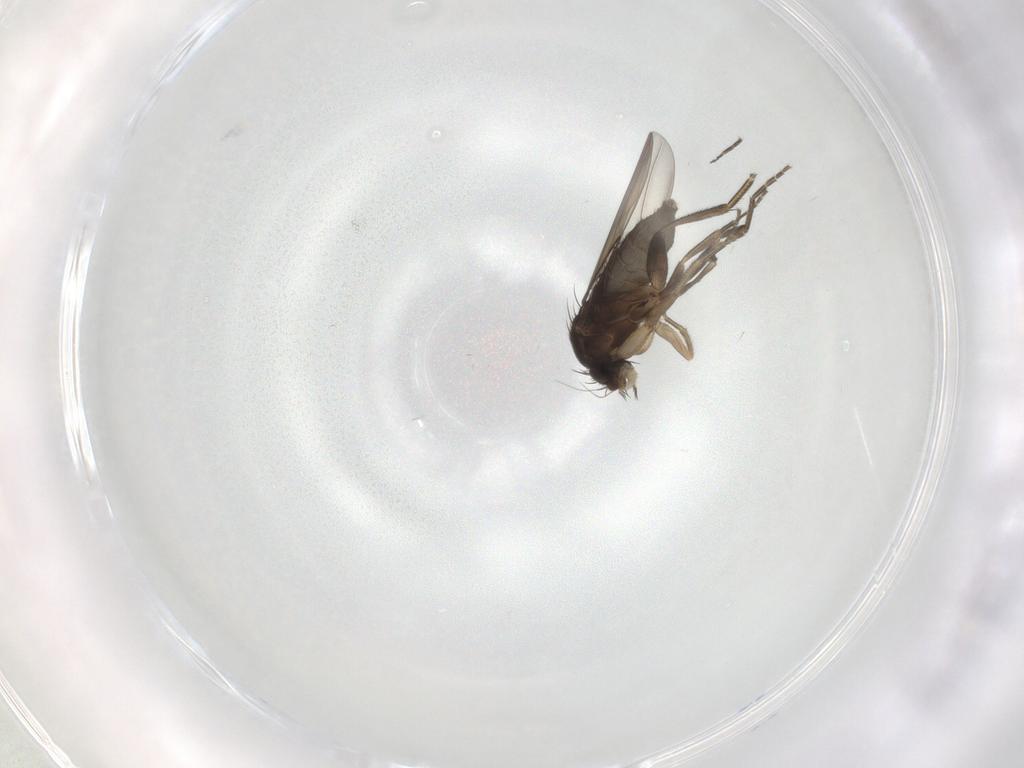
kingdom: Animalia
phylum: Arthropoda
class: Insecta
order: Diptera
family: Phoridae
